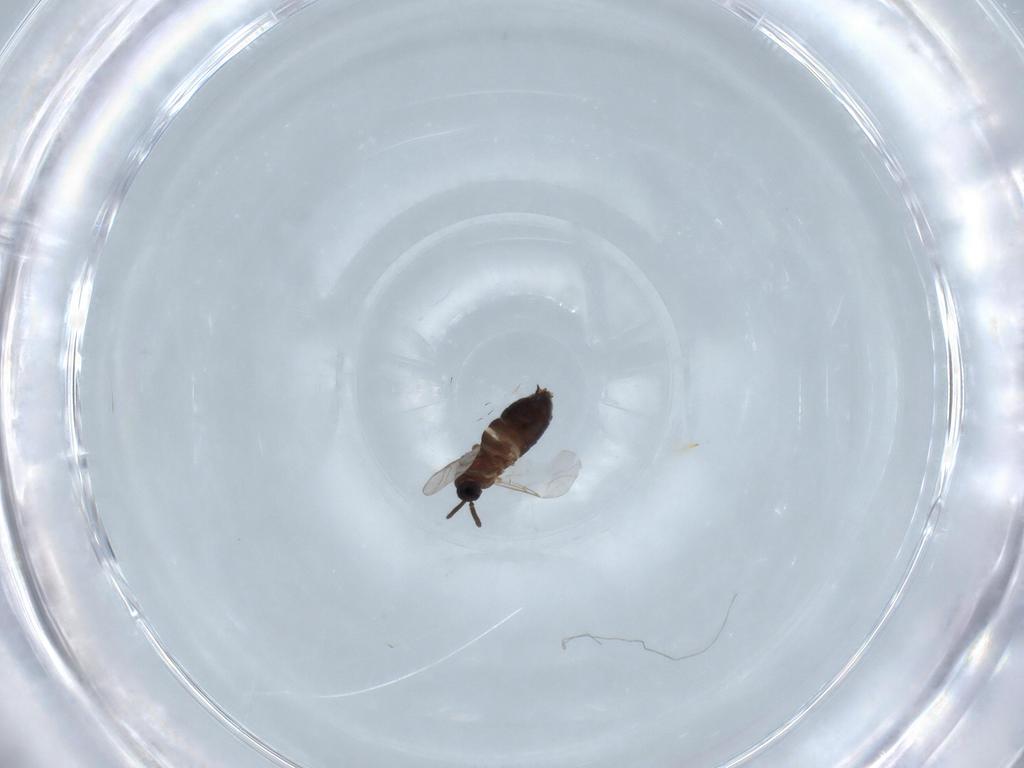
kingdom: Animalia
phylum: Arthropoda
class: Insecta
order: Diptera
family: Scatopsidae
